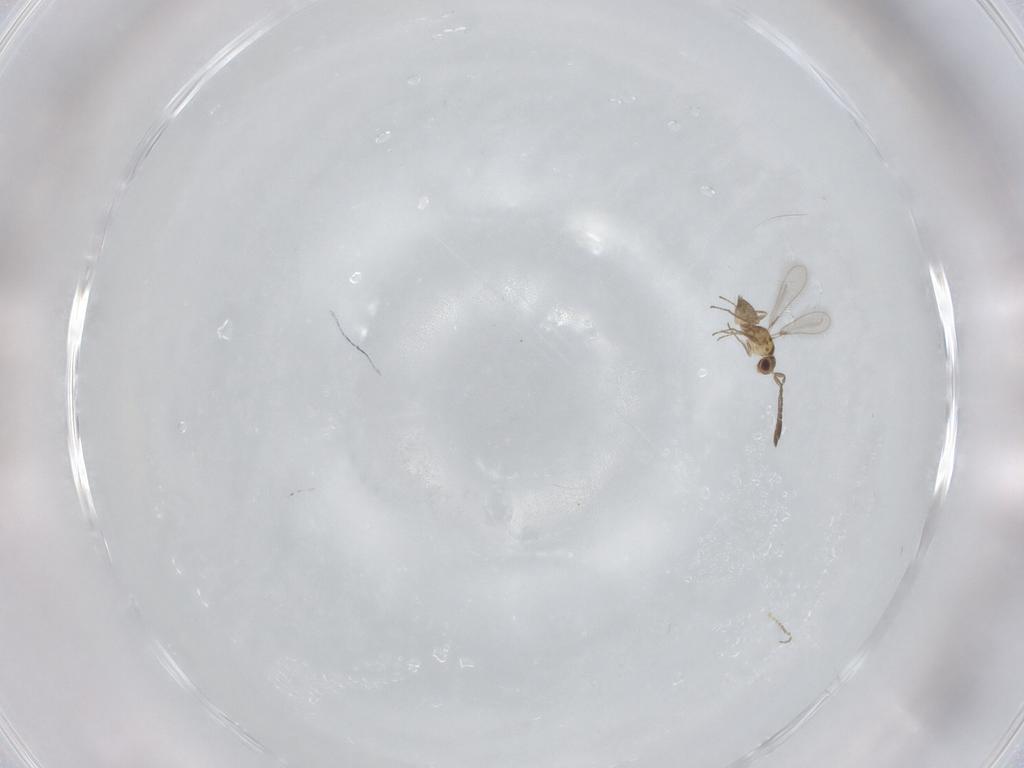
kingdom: Animalia
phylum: Arthropoda
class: Insecta
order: Hymenoptera
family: Mymaridae
